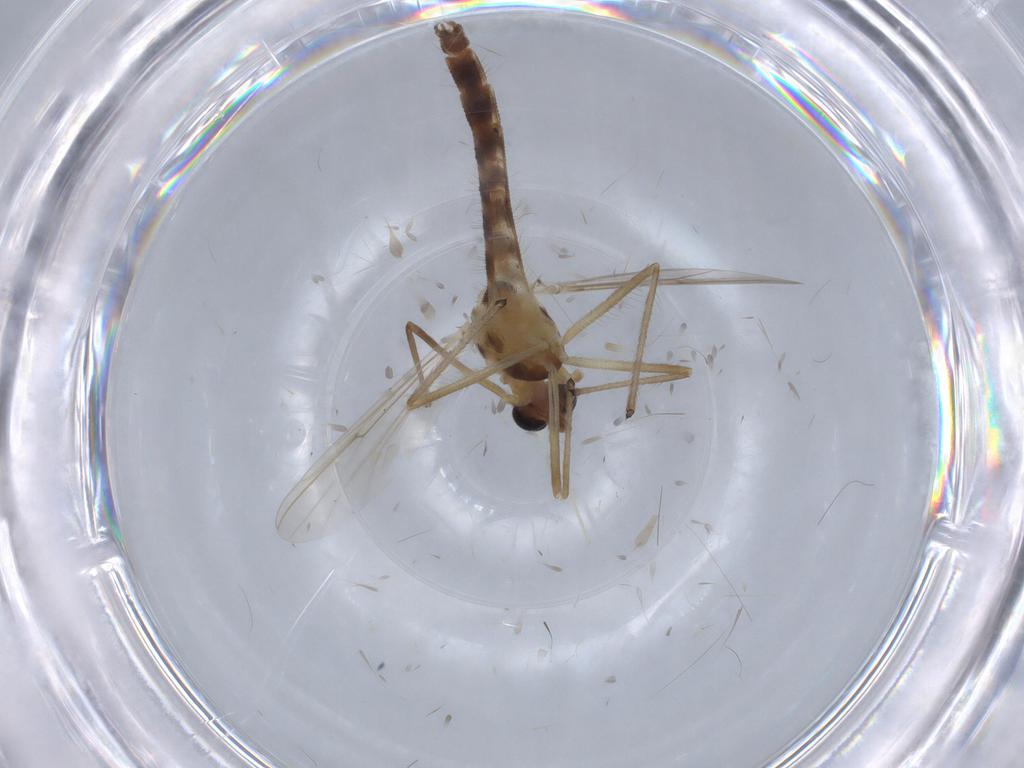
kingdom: Animalia
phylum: Arthropoda
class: Insecta
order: Diptera
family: Chironomidae
